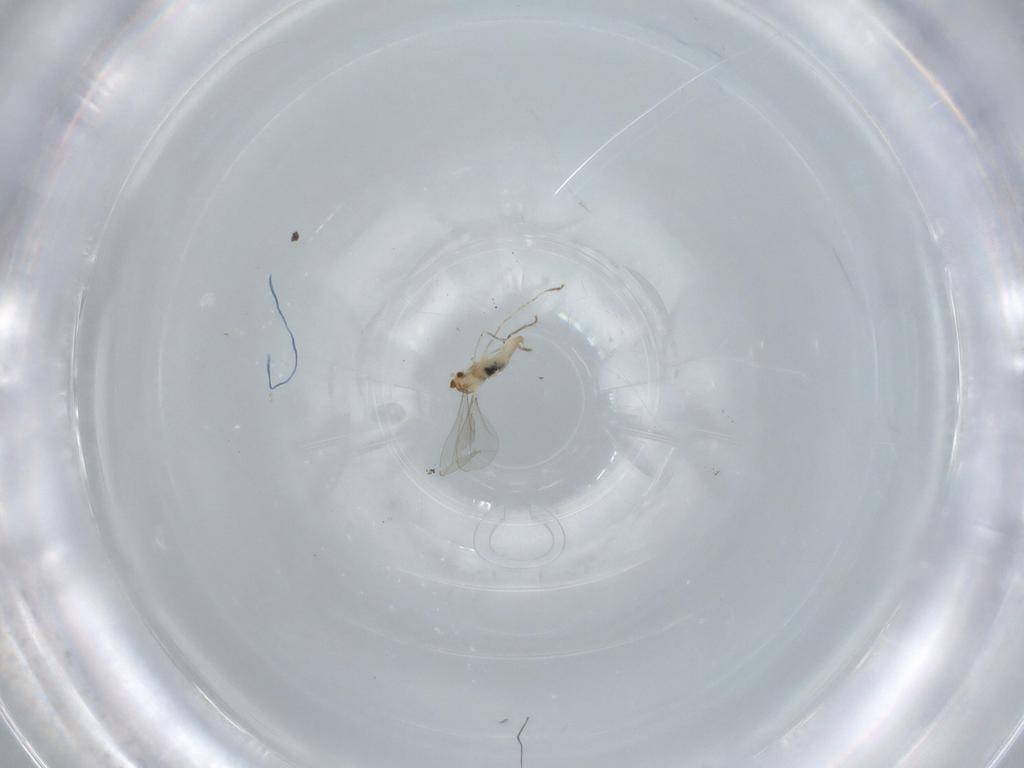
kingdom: Animalia
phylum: Arthropoda
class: Insecta
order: Diptera
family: Cecidomyiidae
